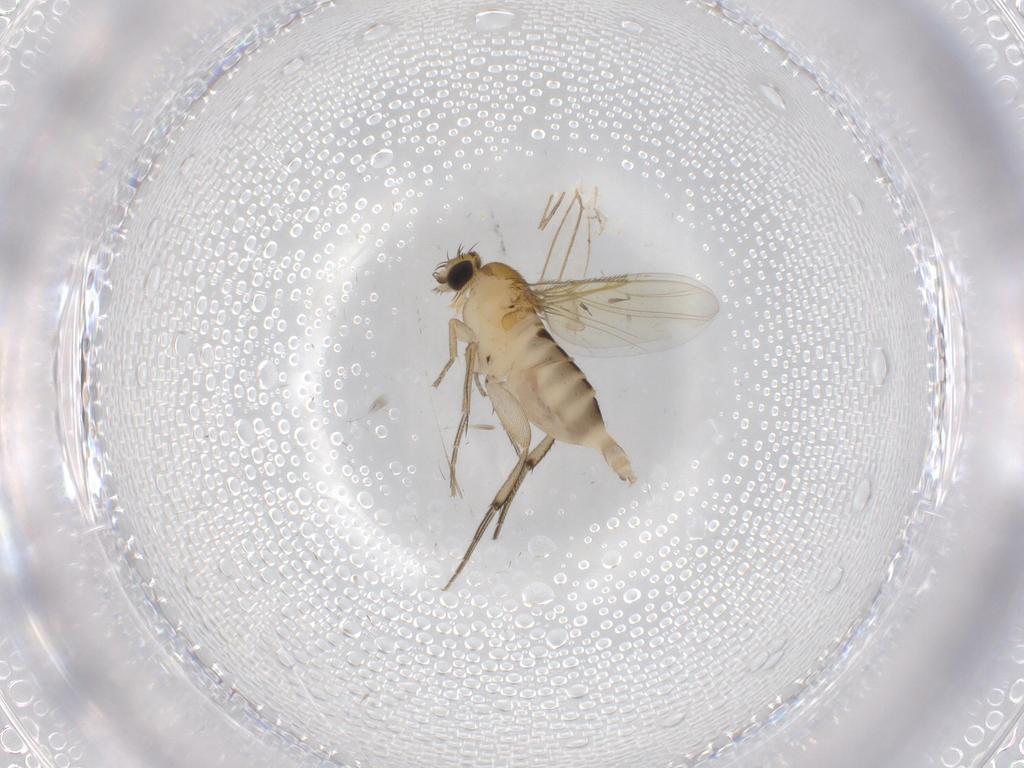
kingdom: Animalia
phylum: Arthropoda
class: Insecta
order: Diptera
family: Phoridae
